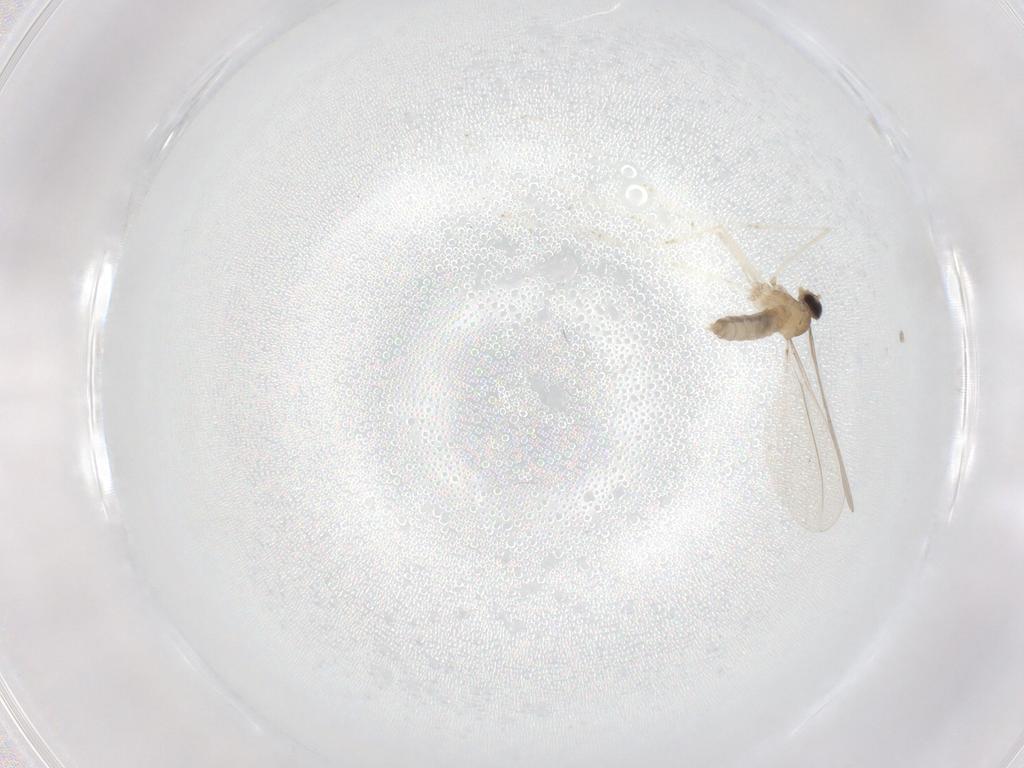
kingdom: Animalia
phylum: Arthropoda
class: Insecta
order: Diptera
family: Cecidomyiidae
